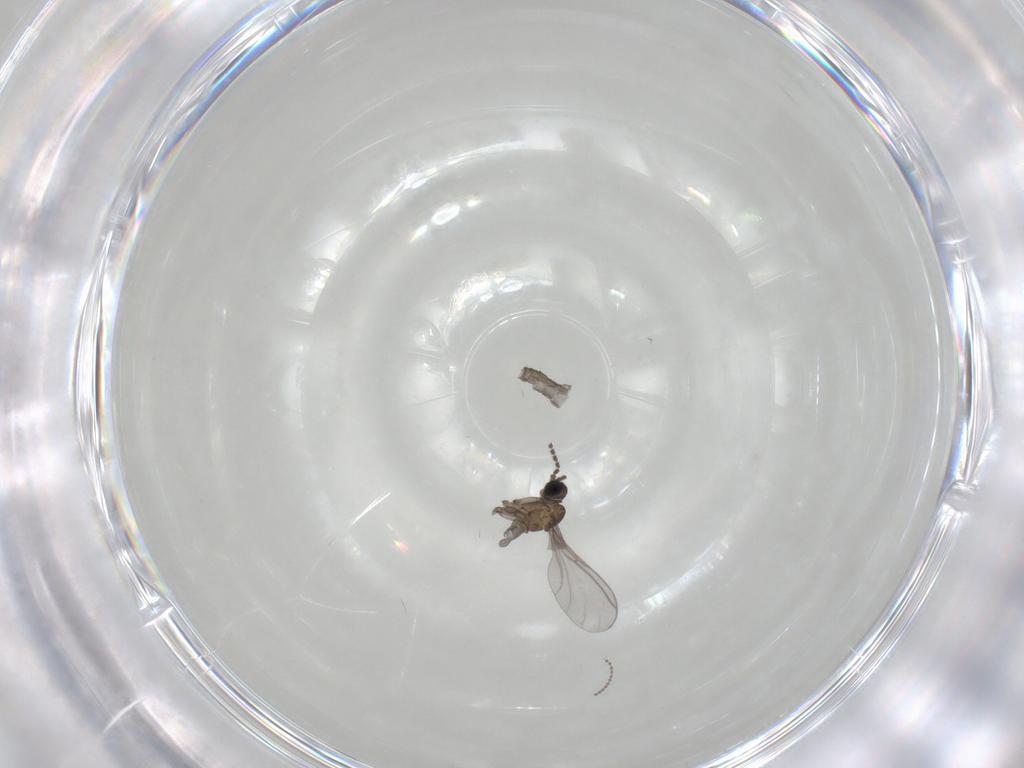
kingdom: Animalia
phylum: Arthropoda
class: Insecta
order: Diptera
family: Cecidomyiidae
